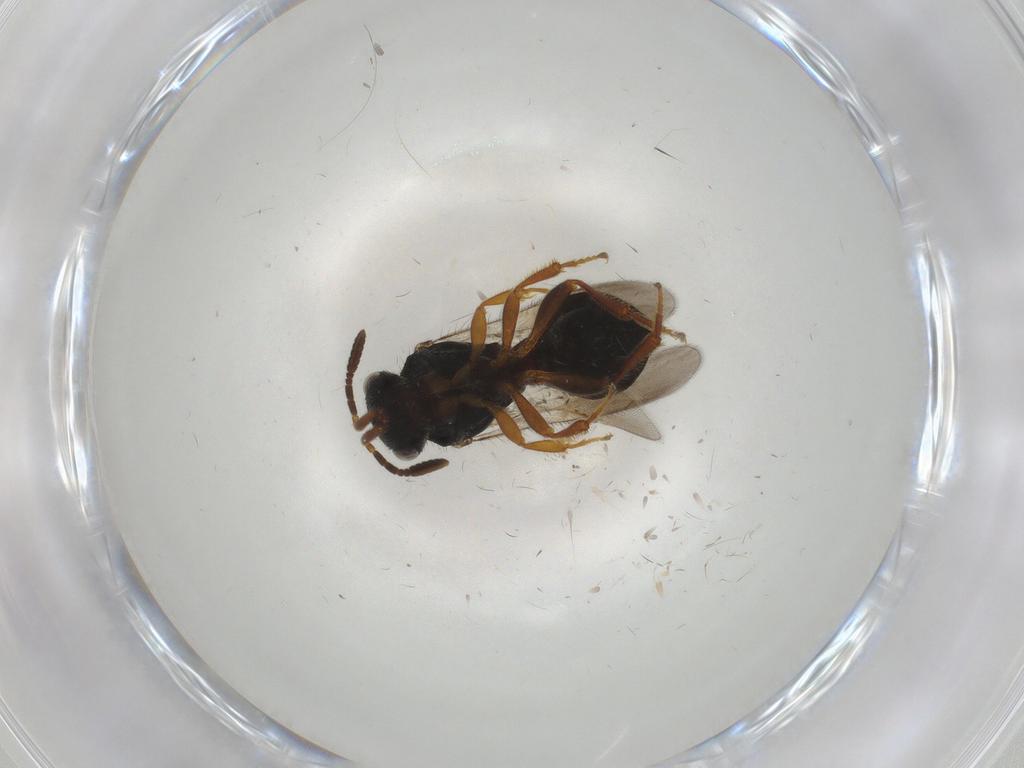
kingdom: Animalia
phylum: Arthropoda
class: Insecta
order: Hymenoptera
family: Scelionidae
